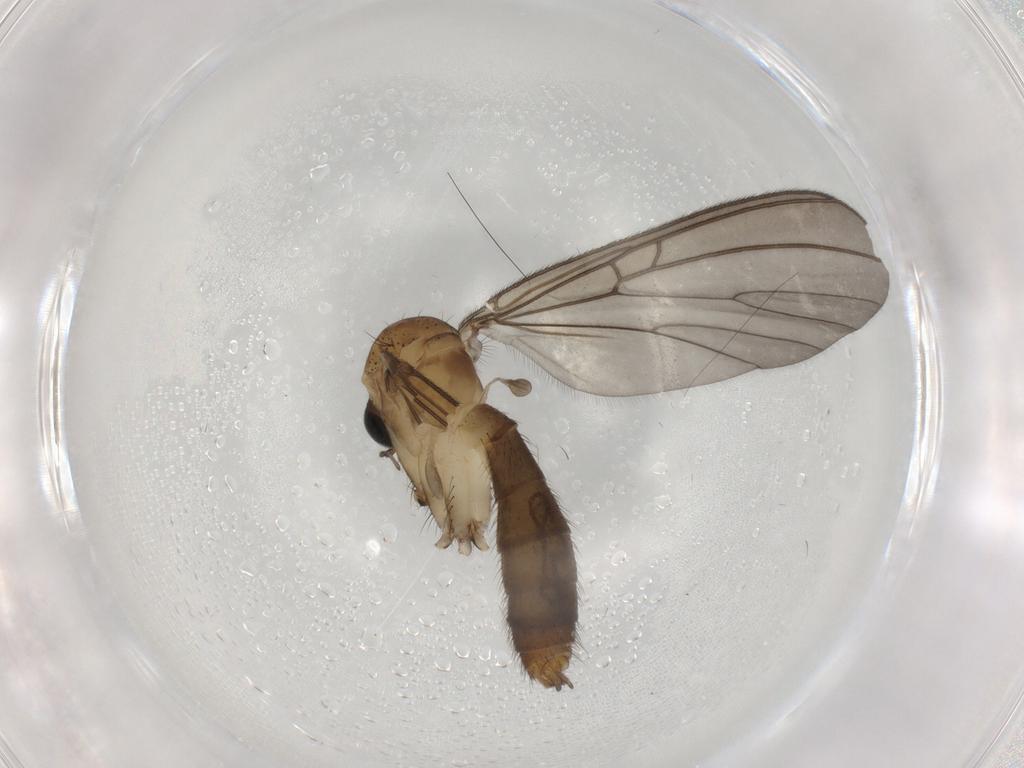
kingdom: Animalia
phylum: Arthropoda
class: Insecta
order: Diptera
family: Mycetophilidae
